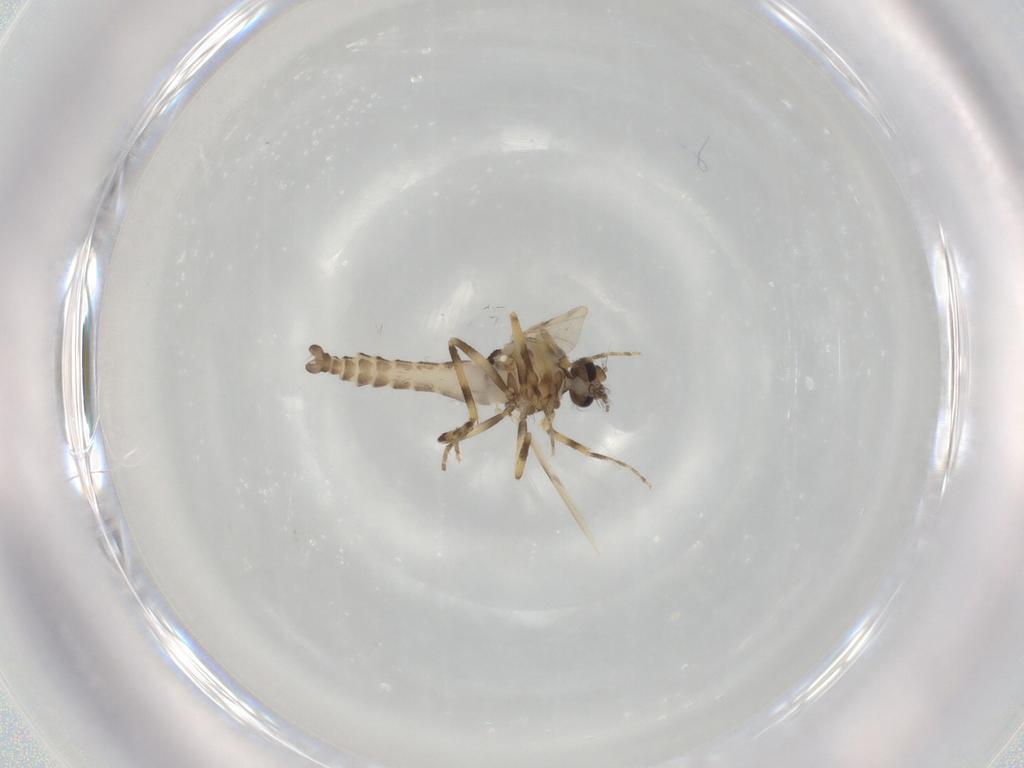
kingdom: Animalia
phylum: Arthropoda
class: Insecta
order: Diptera
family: Ceratopogonidae
